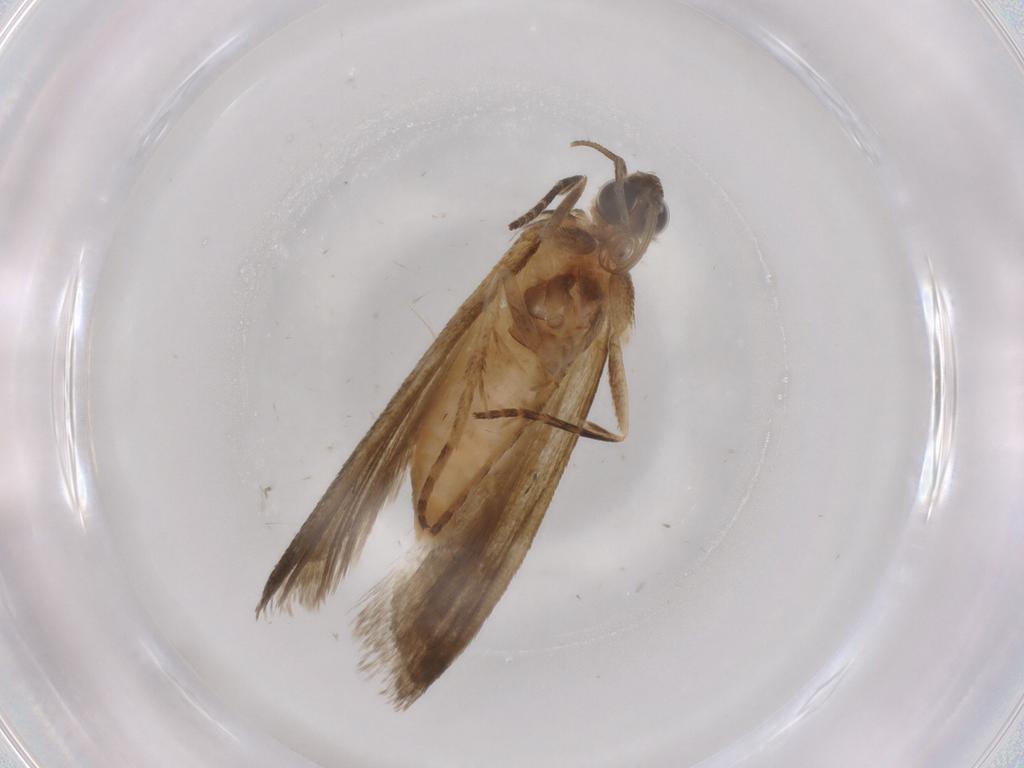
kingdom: Animalia
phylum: Arthropoda
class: Insecta
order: Lepidoptera
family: Noctuidae
